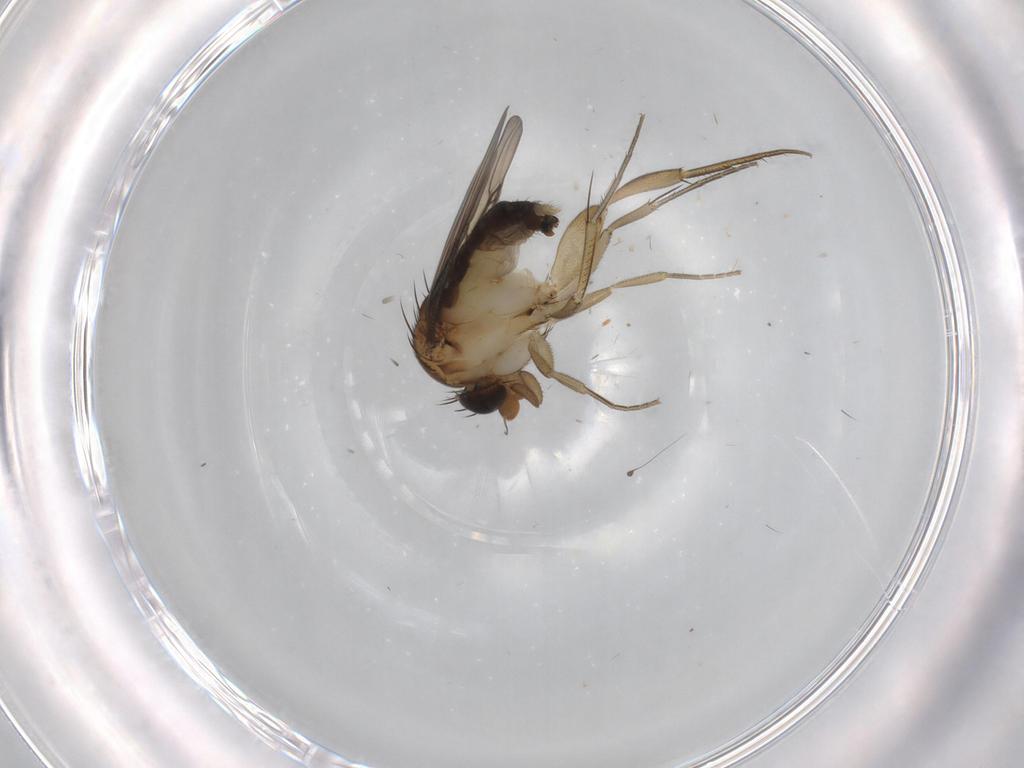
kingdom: Animalia
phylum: Arthropoda
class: Insecta
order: Diptera
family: Phoridae
